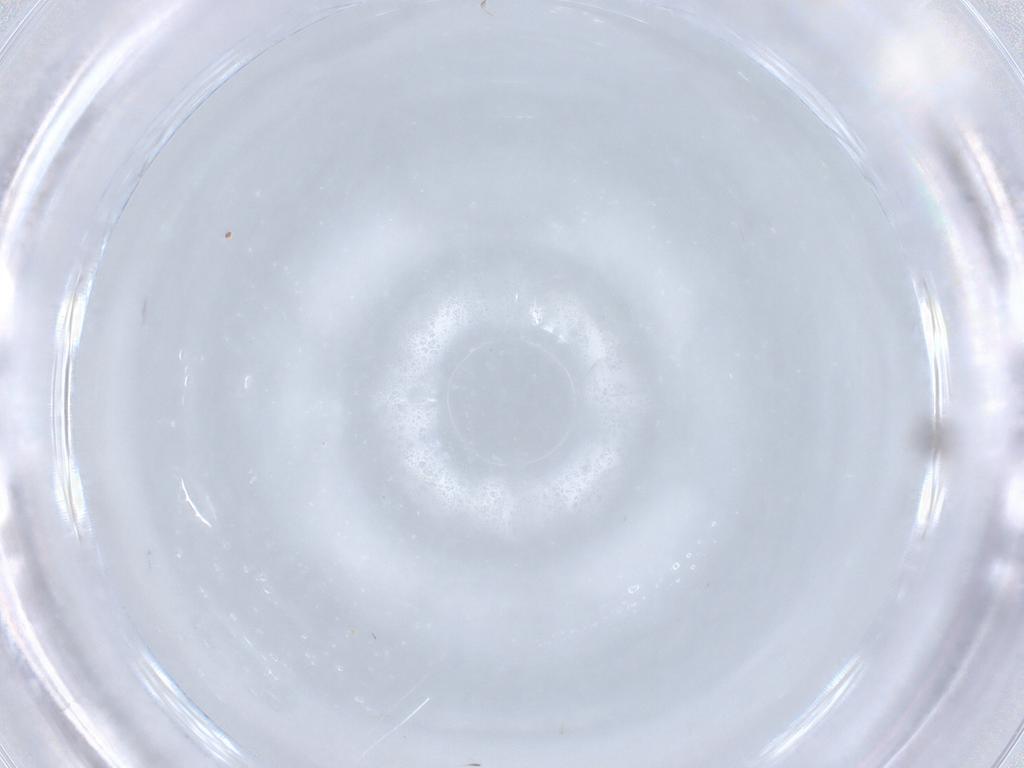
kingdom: Animalia
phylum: Arthropoda
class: Insecta
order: Diptera
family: Cecidomyiidae
